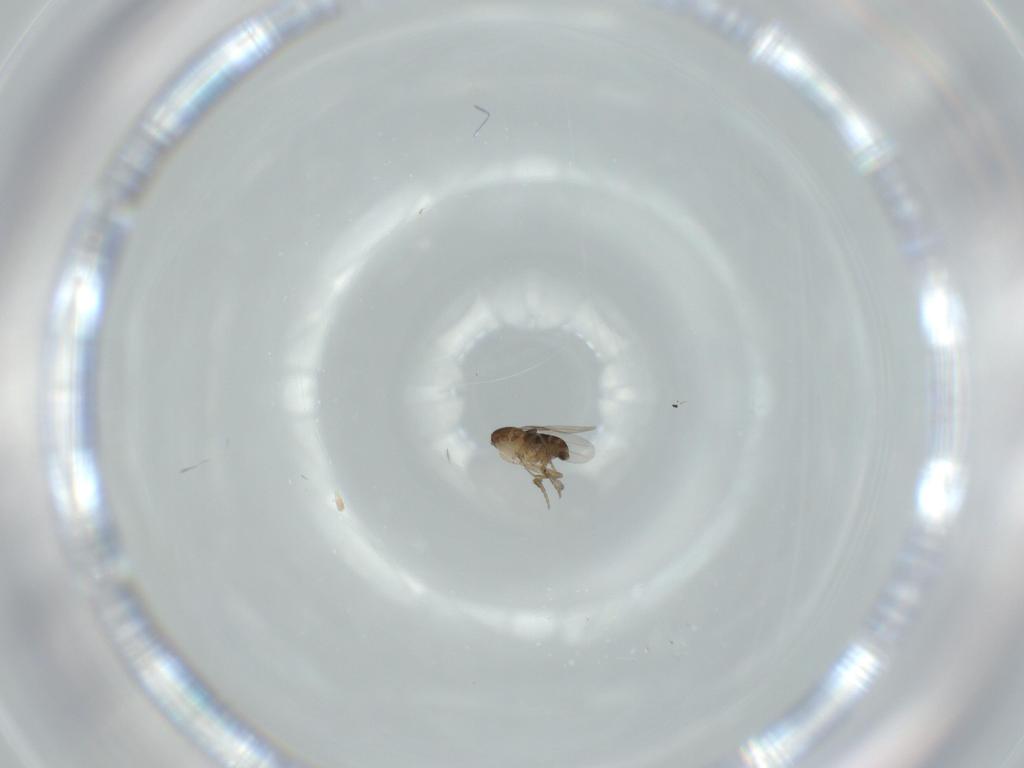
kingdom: Animalia
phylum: Arthropoda
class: Insecta
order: Diptera
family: Phoridae
